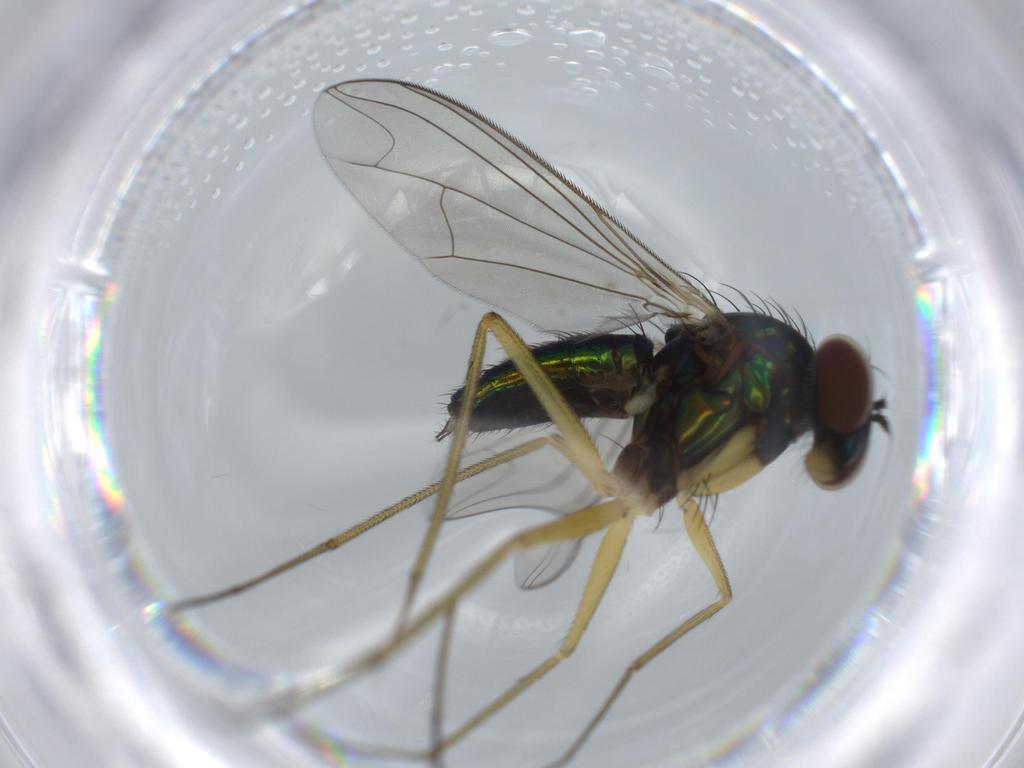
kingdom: Animalia
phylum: Arthropoda
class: Insecta
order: Diptera
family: Dolichopodidae
